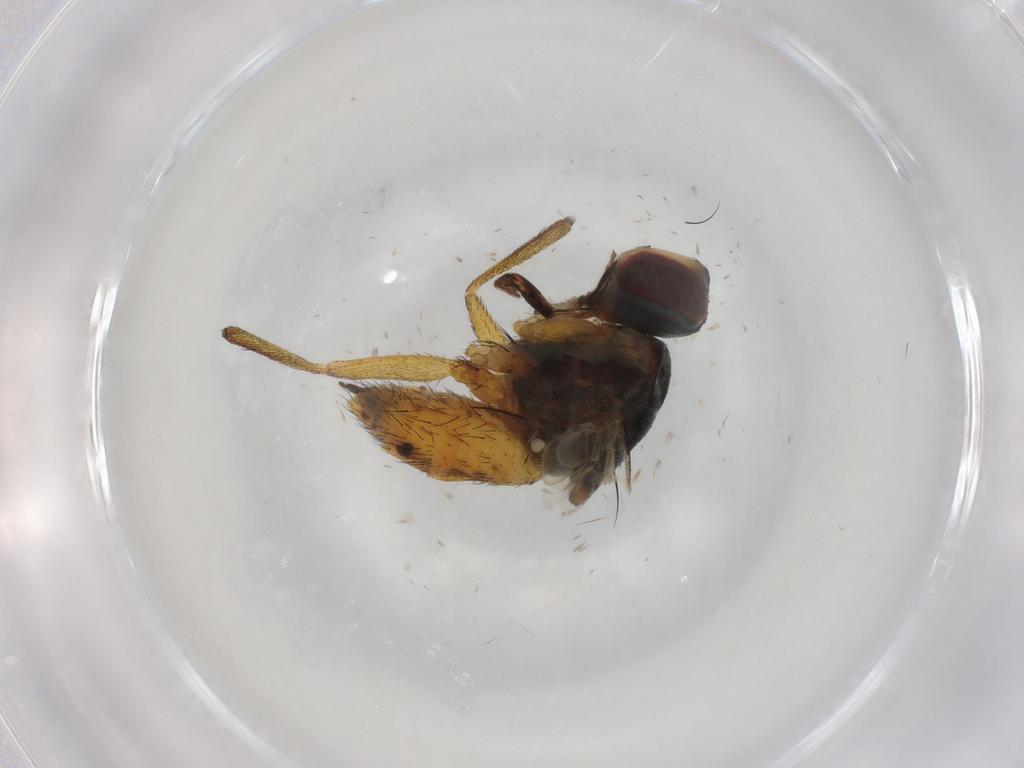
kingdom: Animalia
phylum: Arthropoda
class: Insecta
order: Diptera
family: Muscidae
